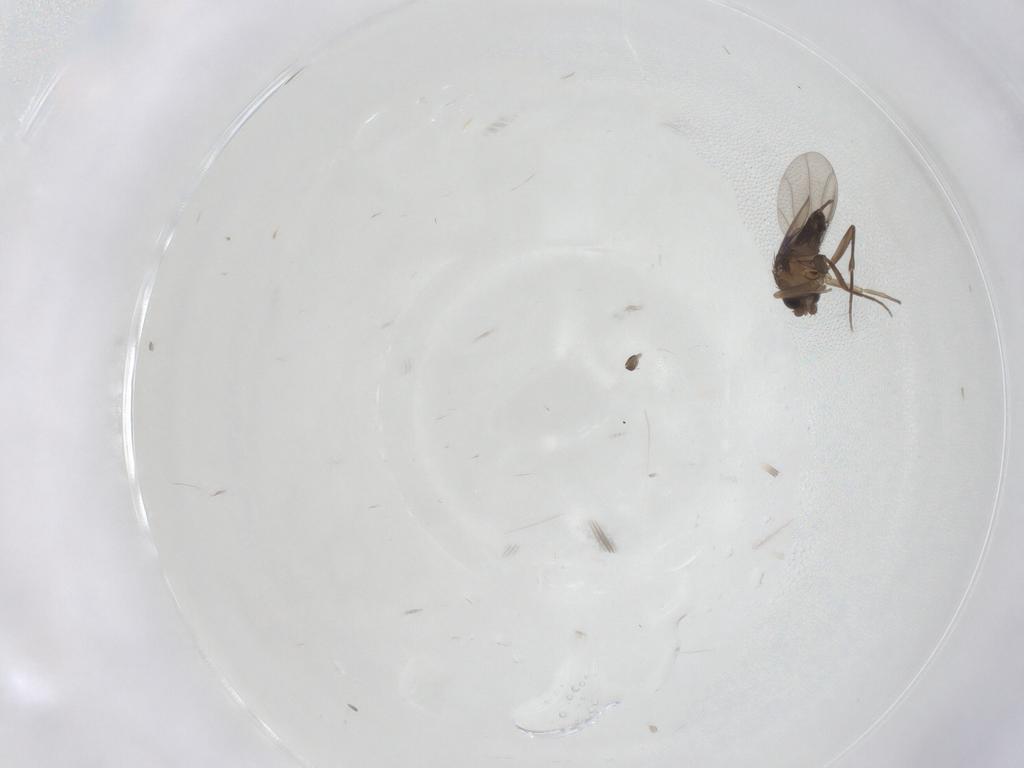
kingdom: Animalia
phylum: Arthropoda
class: Insecta
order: Diptera
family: Phoridae
